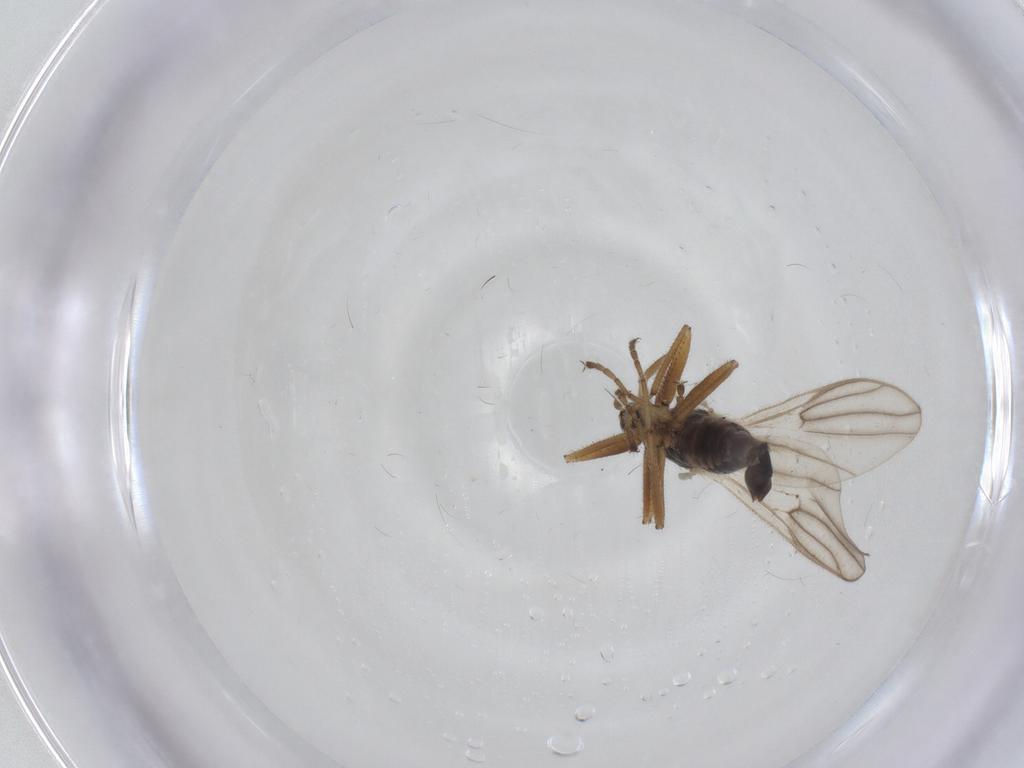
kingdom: Animalia
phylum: Arthropoda
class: Insecta
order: Diptera
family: Hybotidae
